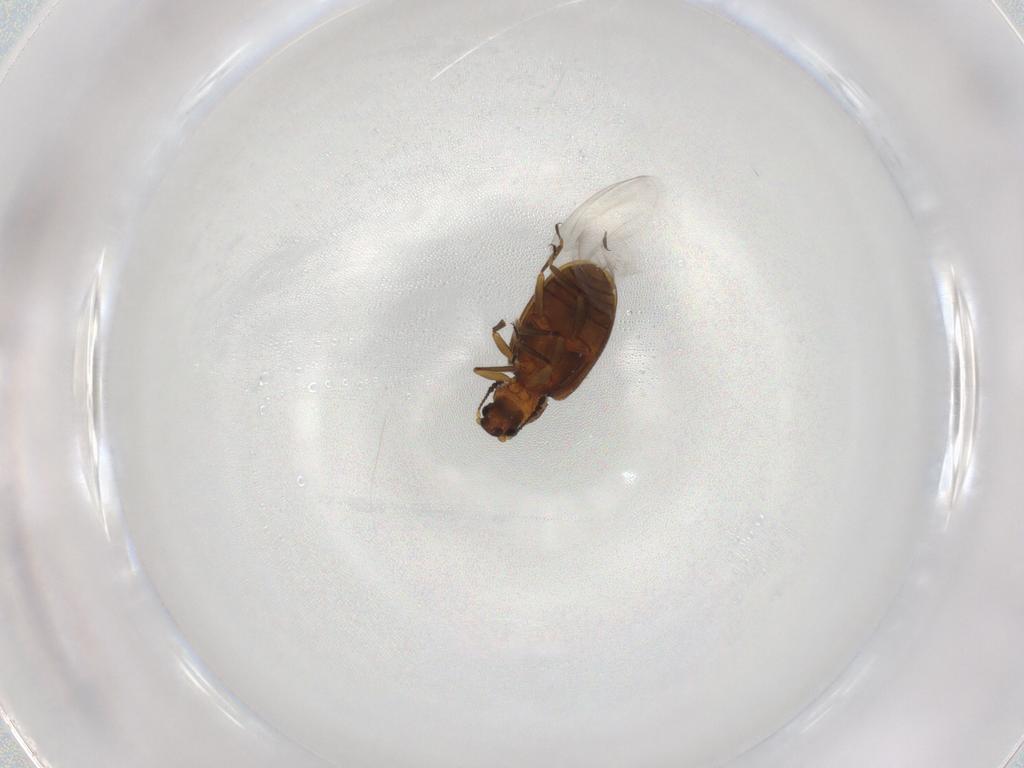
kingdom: Animalia
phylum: Arthropoda
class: Insecta
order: Coleoptera
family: Latridiidae
